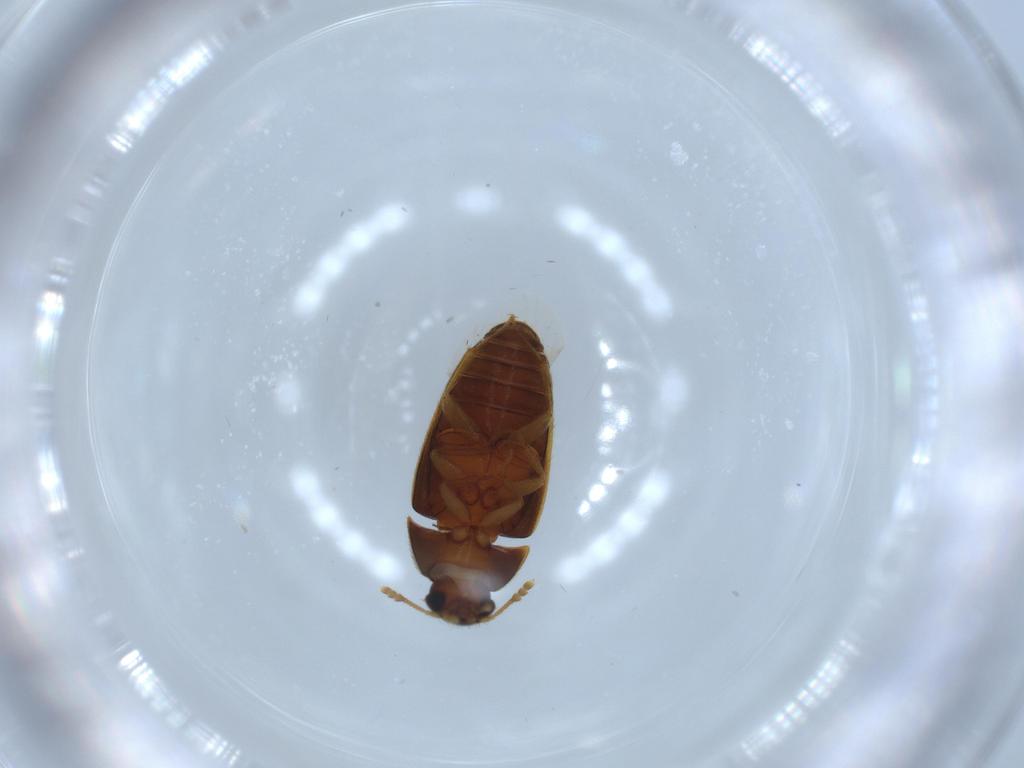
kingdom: Animalia
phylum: Arthropoda
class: Insecta
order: Coleoptera
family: Mycetophagidae
